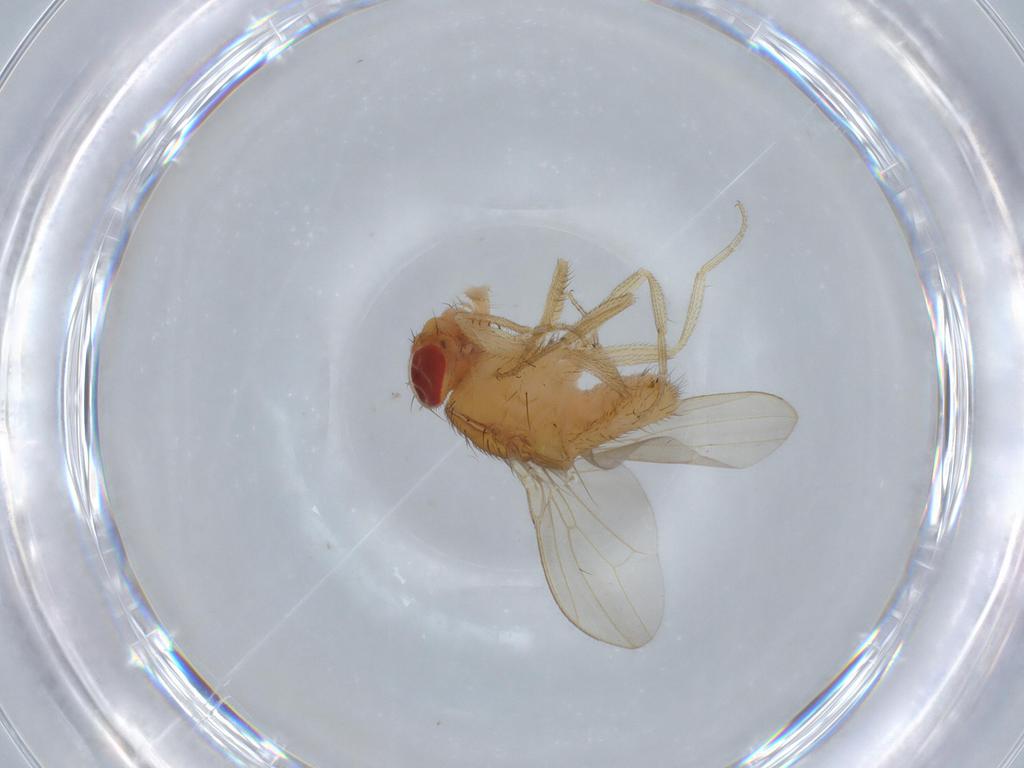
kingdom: Animalia
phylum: Arthropoda
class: Insecta
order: Diptera
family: Drosophilidae
